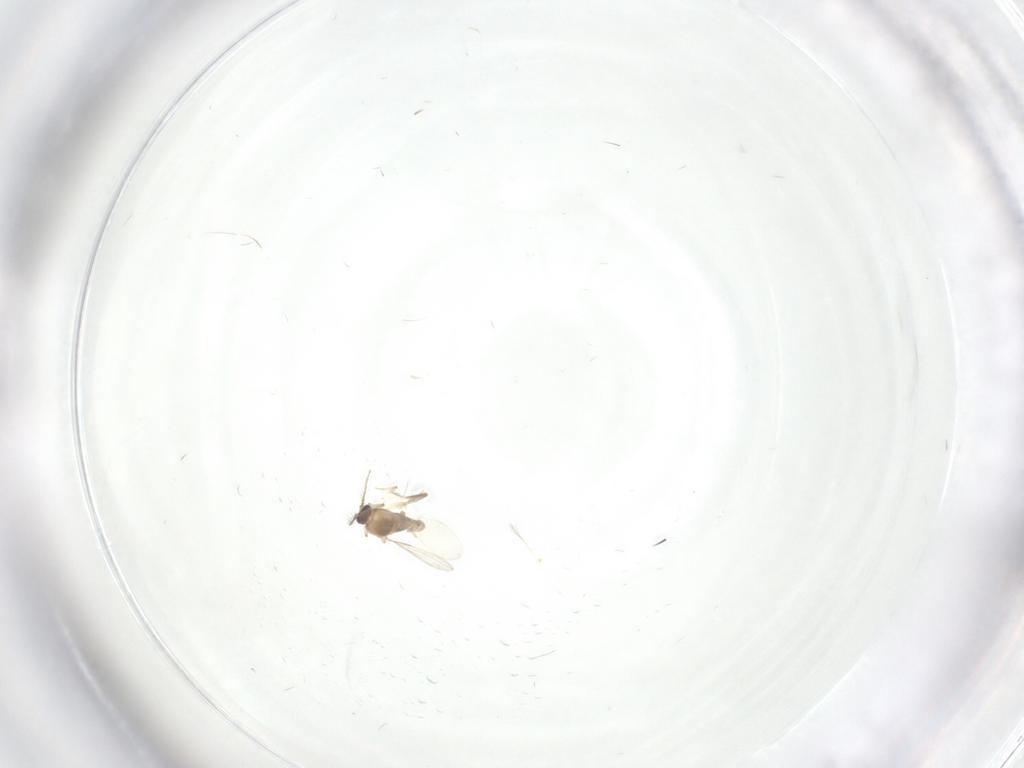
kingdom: Animalia
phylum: Arthropoda
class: Insecta
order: Diptera
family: Ceratopogonidae
